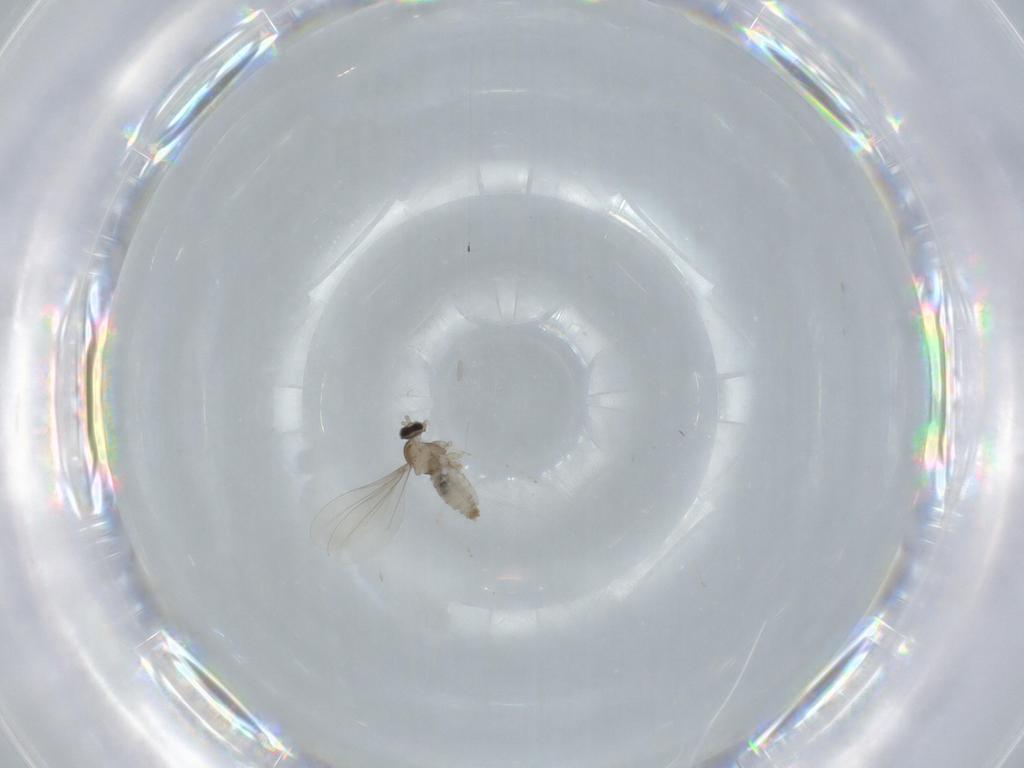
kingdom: Animalia
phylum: Arthropoda
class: Insecta
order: Diptera
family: Cecidomyiidae
